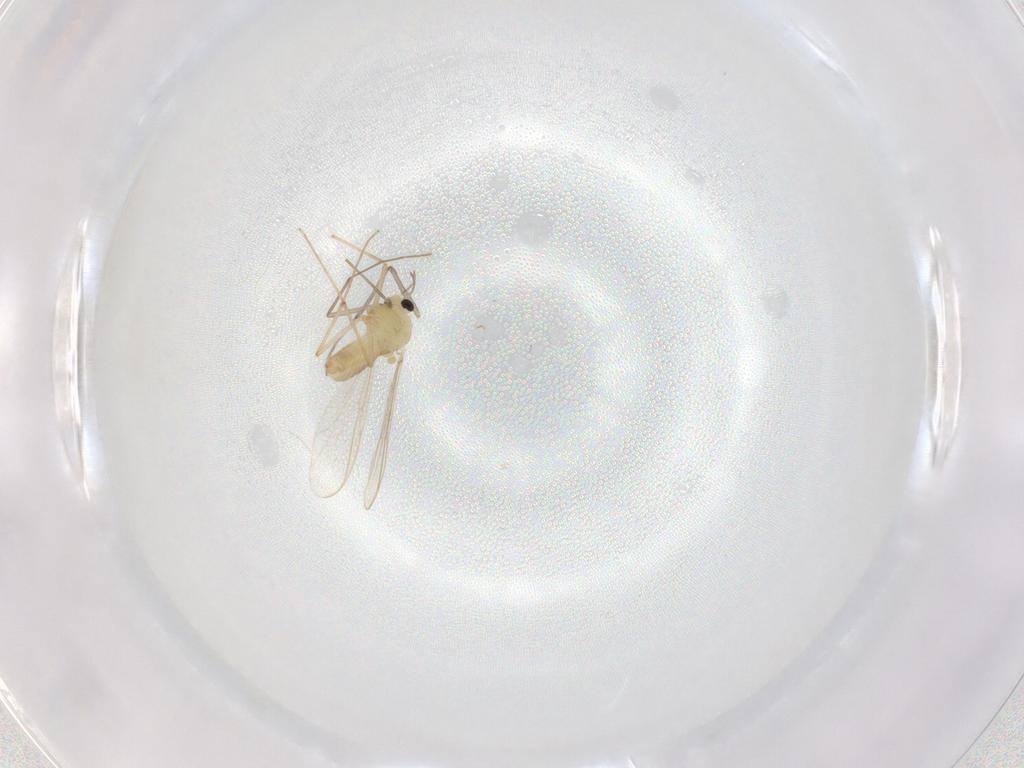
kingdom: Animalia
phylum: Arthropoda
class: Insecta
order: Diptera
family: Chironomidae
